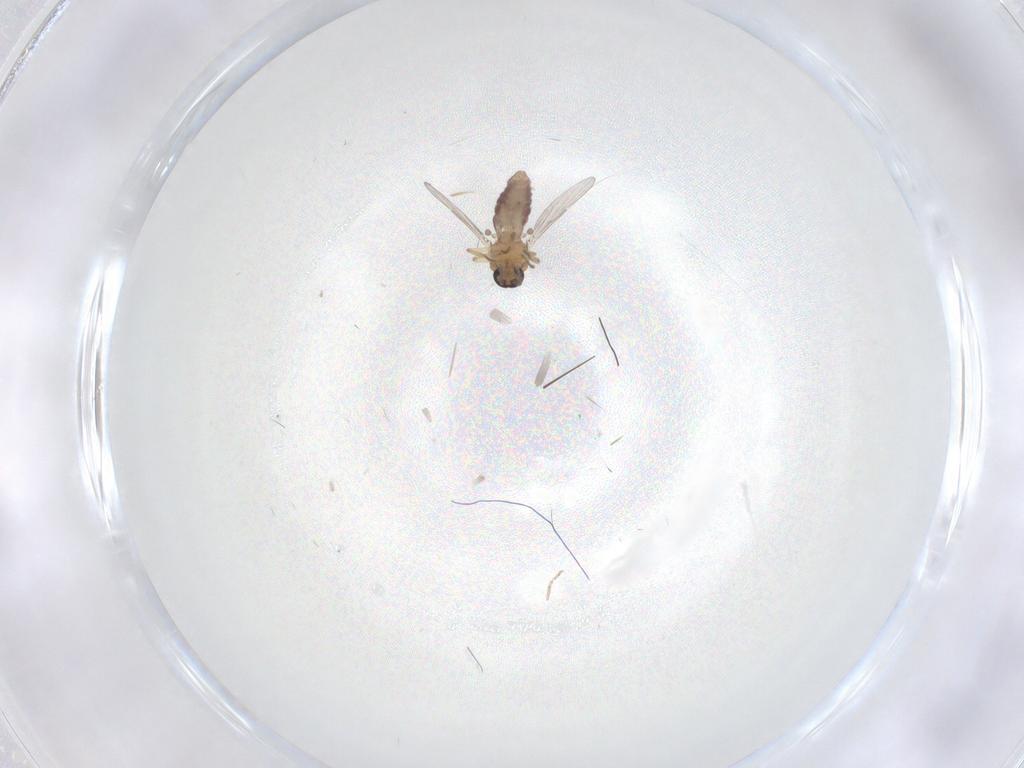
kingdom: Animalia
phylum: Arthropoda
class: Insecta
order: Diptera
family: Ceratopogonidae
